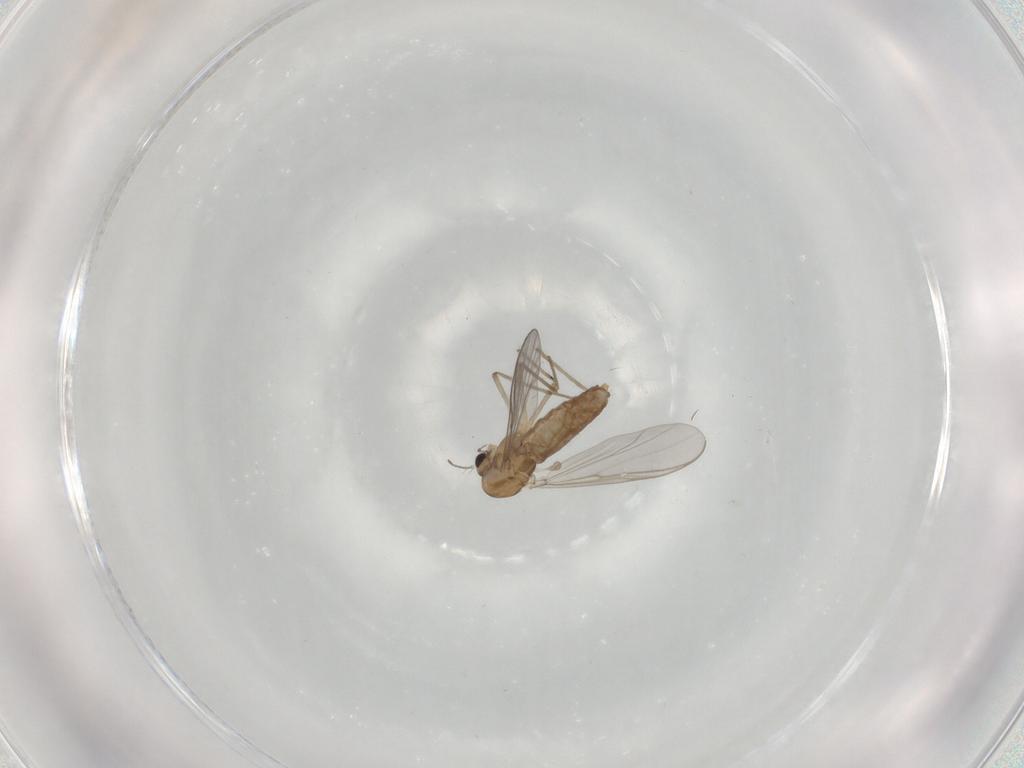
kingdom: Animalia
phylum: Arthropoda
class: Insecta
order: Diptera
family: Chironomidae
